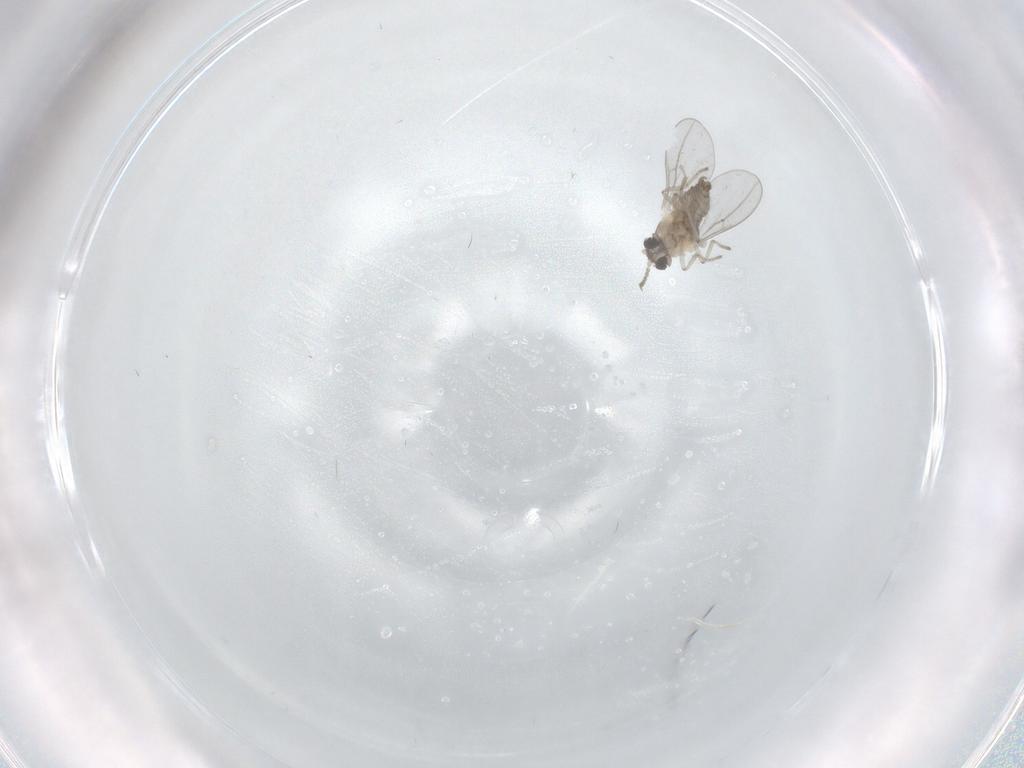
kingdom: Animalia
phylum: Arthropoda
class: Insecta
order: Diptera
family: Cecidomyiidae
